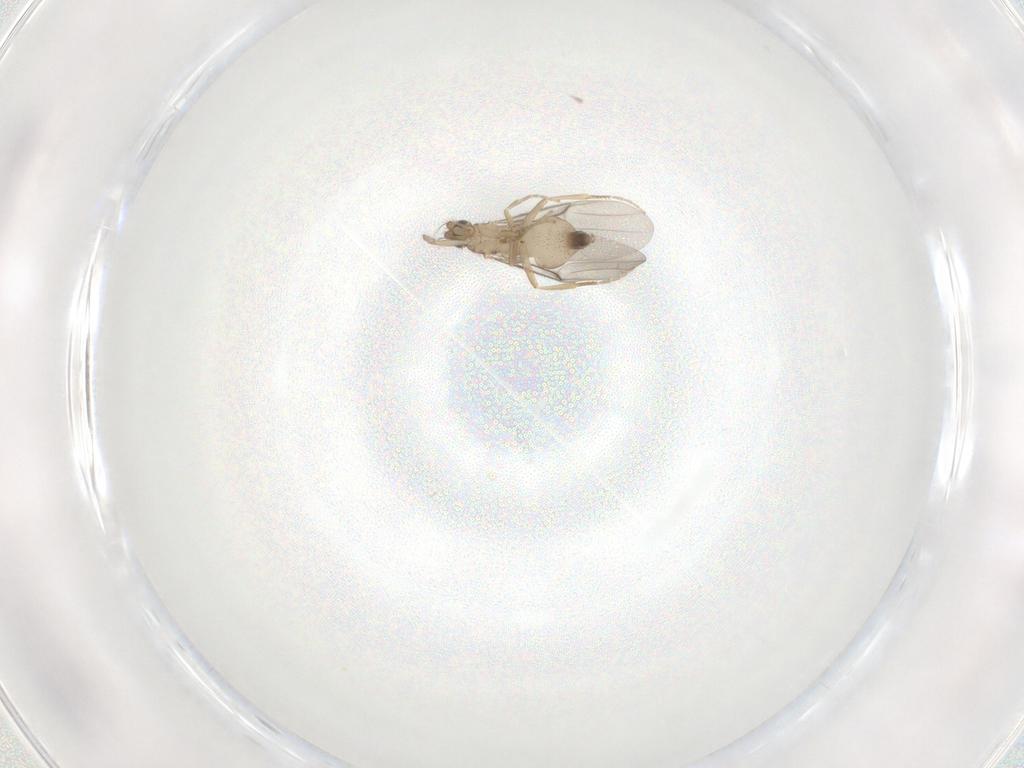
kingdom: Animalia
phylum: Arthropoda
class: Insecta
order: Diptera
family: Phoridae
